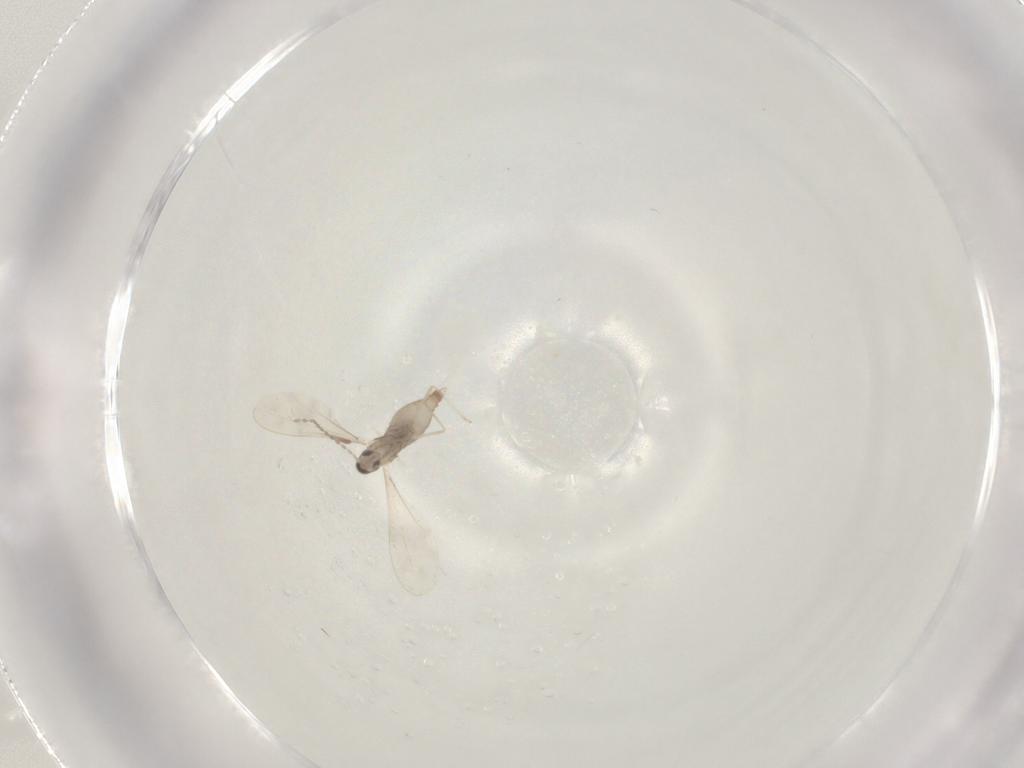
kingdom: Animalia
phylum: Arthropoda
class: Insecta
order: Diptera
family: Cecidomyiidae
